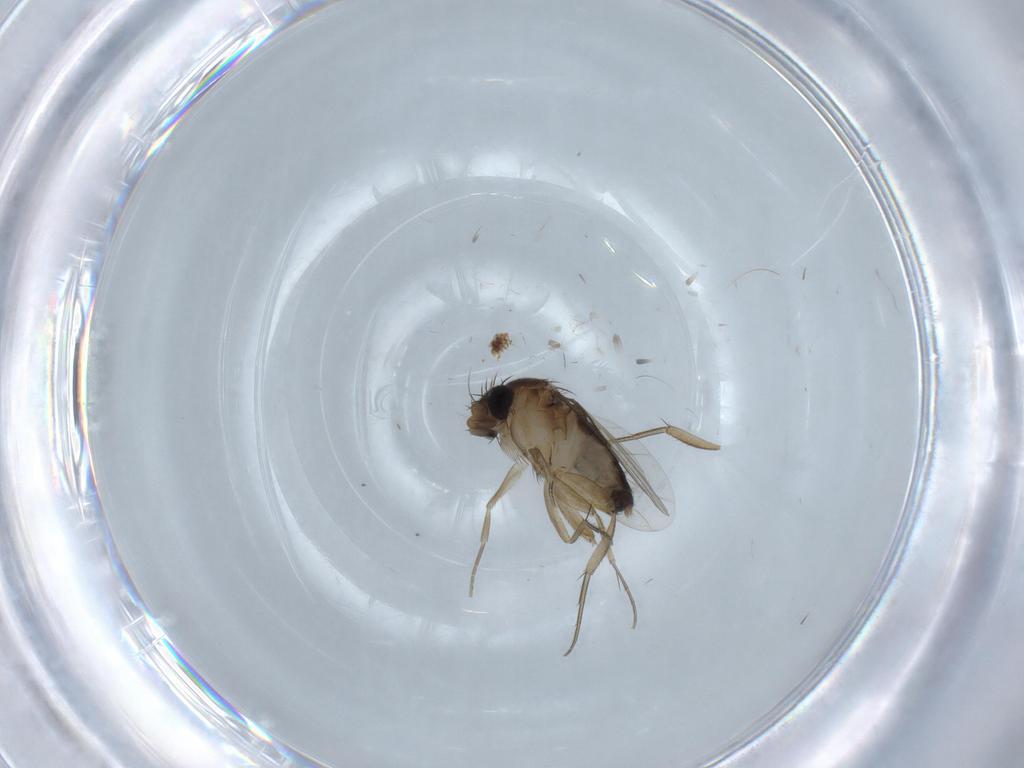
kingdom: Animalia
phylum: Arthropoda
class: Insecta
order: Diptera
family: Phoridae
